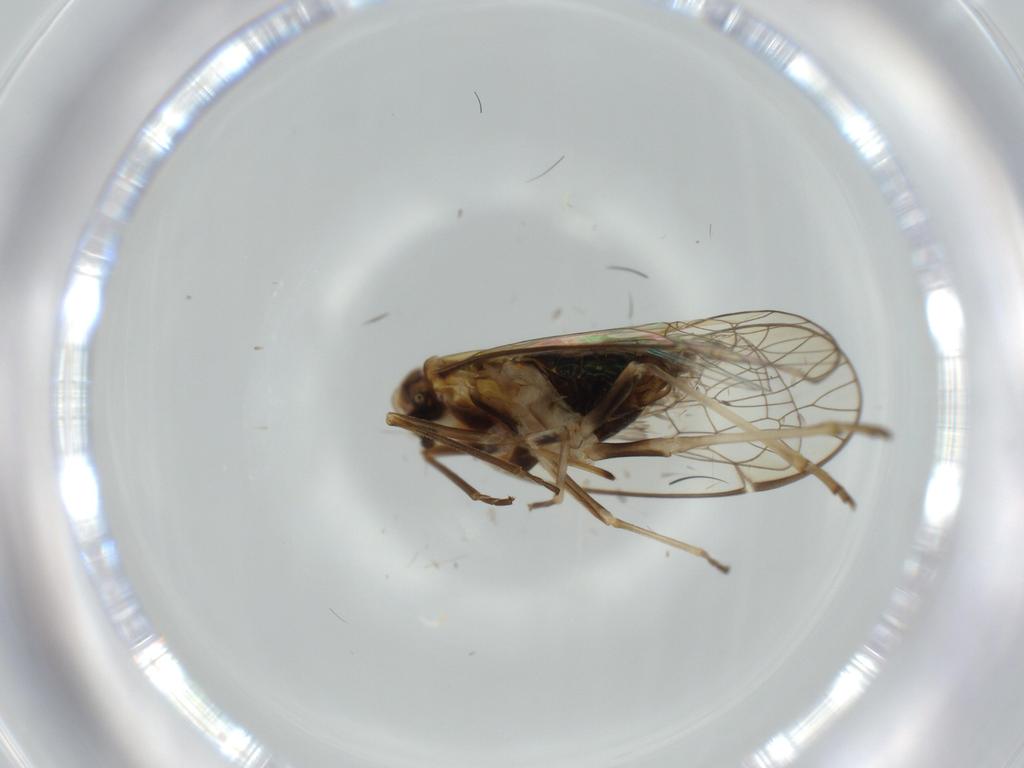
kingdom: Animalia
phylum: Arthropoda
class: Insecta
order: Hemiptera
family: Kinnaridae
